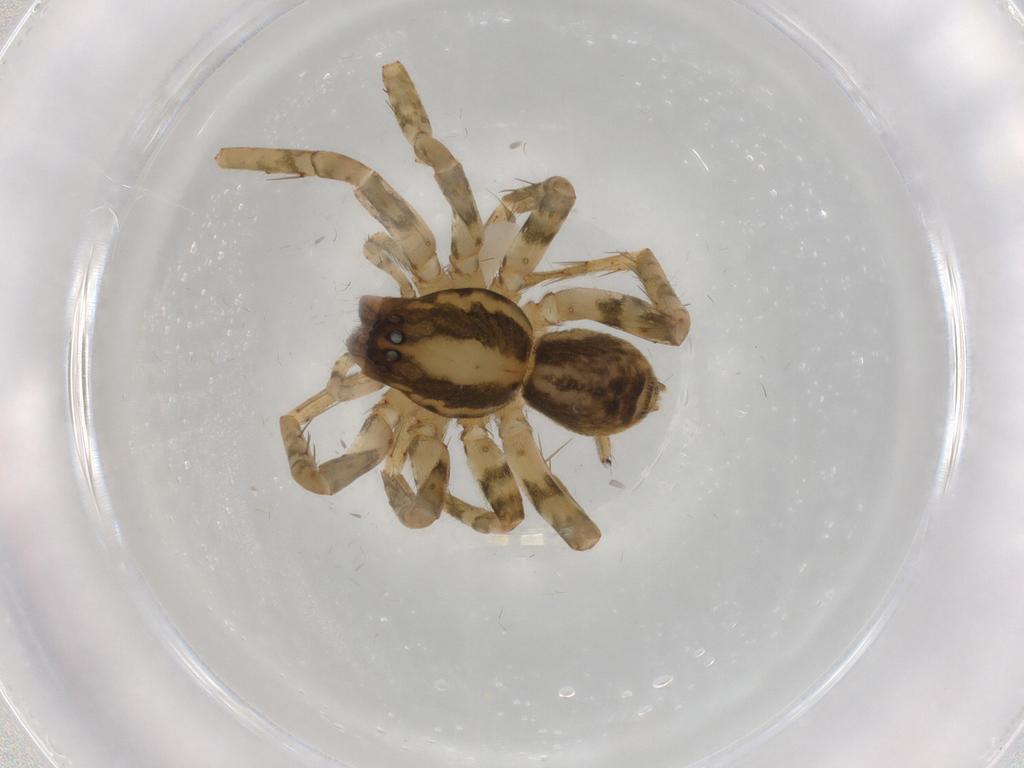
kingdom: Animalia
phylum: Arthropoda
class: Arachnida
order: Araneae
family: Anyphaenidae
